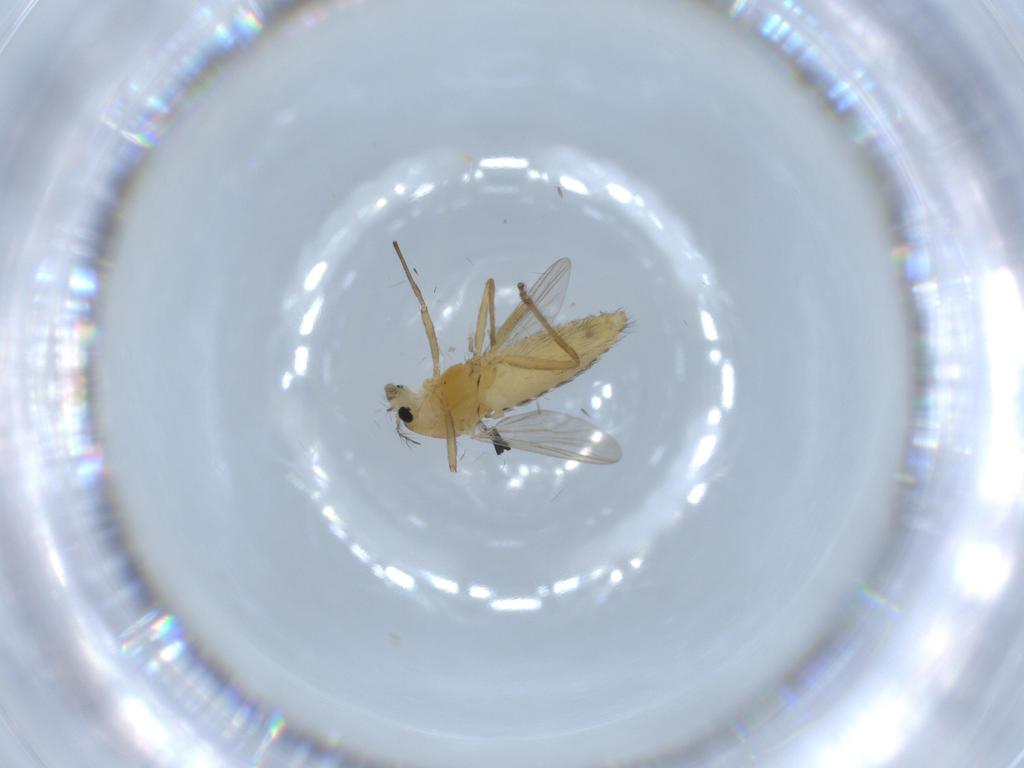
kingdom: Animalia
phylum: Arthropoda
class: Insecta
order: Diptera
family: Chironomidae
